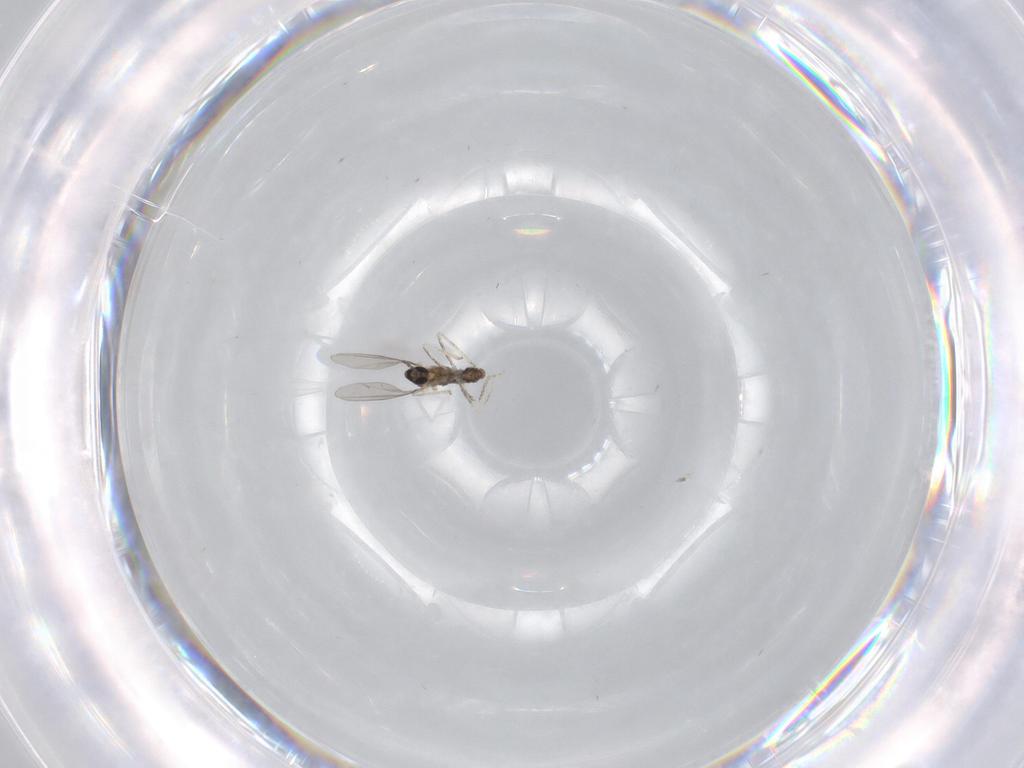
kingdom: Animalia
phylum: Arthropoda
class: Insecta
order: Diptera
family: Cecidomyiidae
